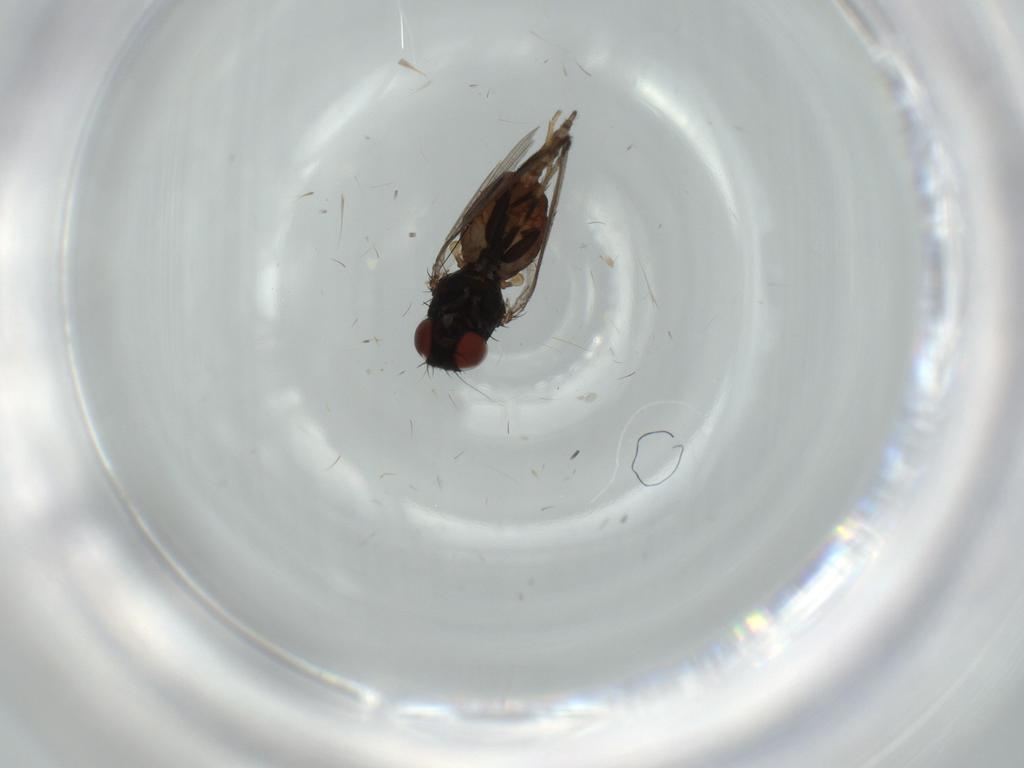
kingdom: Animalia
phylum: Arthropoda
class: Insecta
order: Diptera
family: Milichiidae
